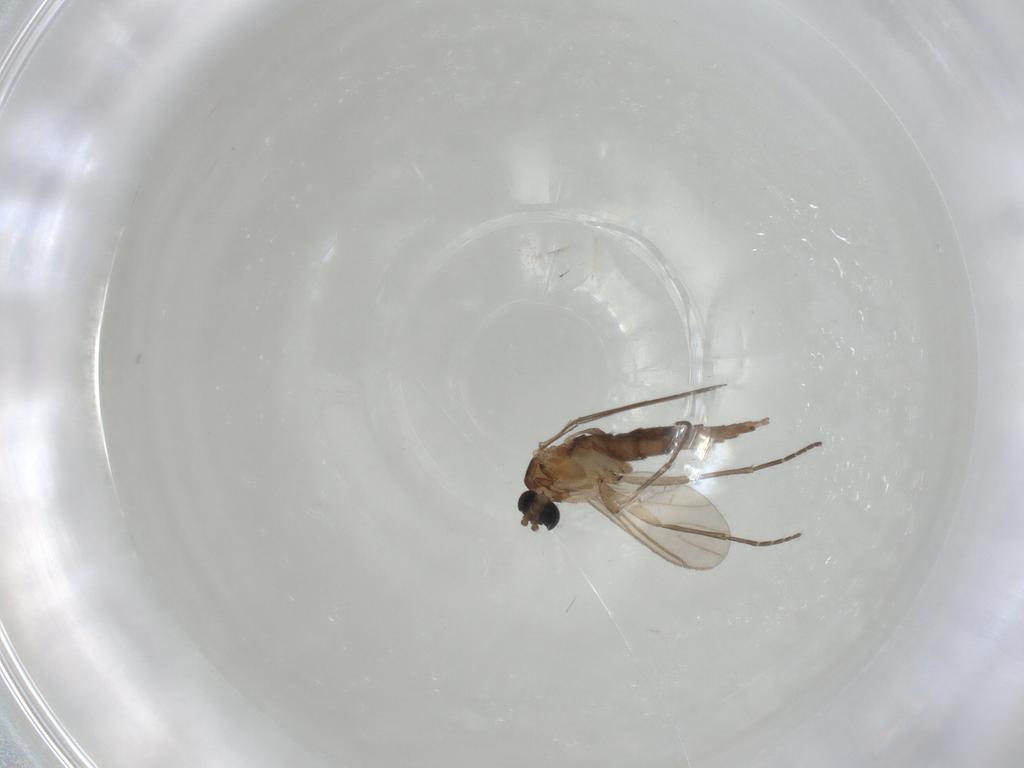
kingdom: Animalia
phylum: Arthropoda
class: Insecta
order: Diptera
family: Sciaridae
